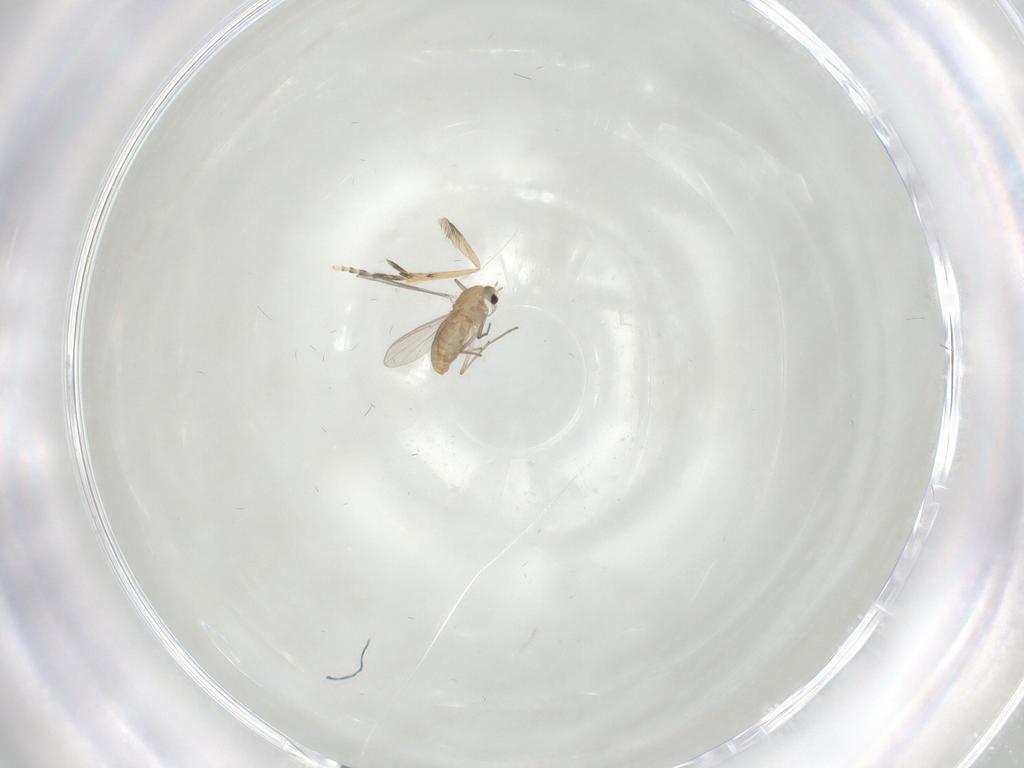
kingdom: Animalia
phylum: Arthropoda
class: Insecta
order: Diptera
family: Chironomidae
